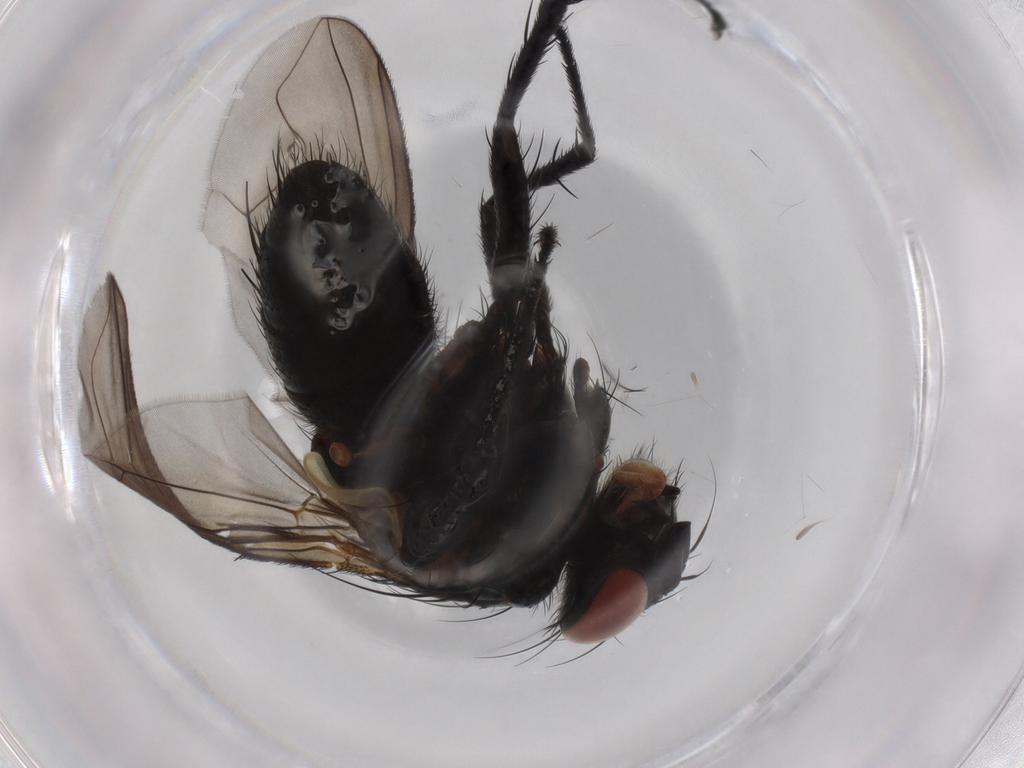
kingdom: Animalia
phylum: Arthropoda
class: Insecta
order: Diptera
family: Tachinidae
